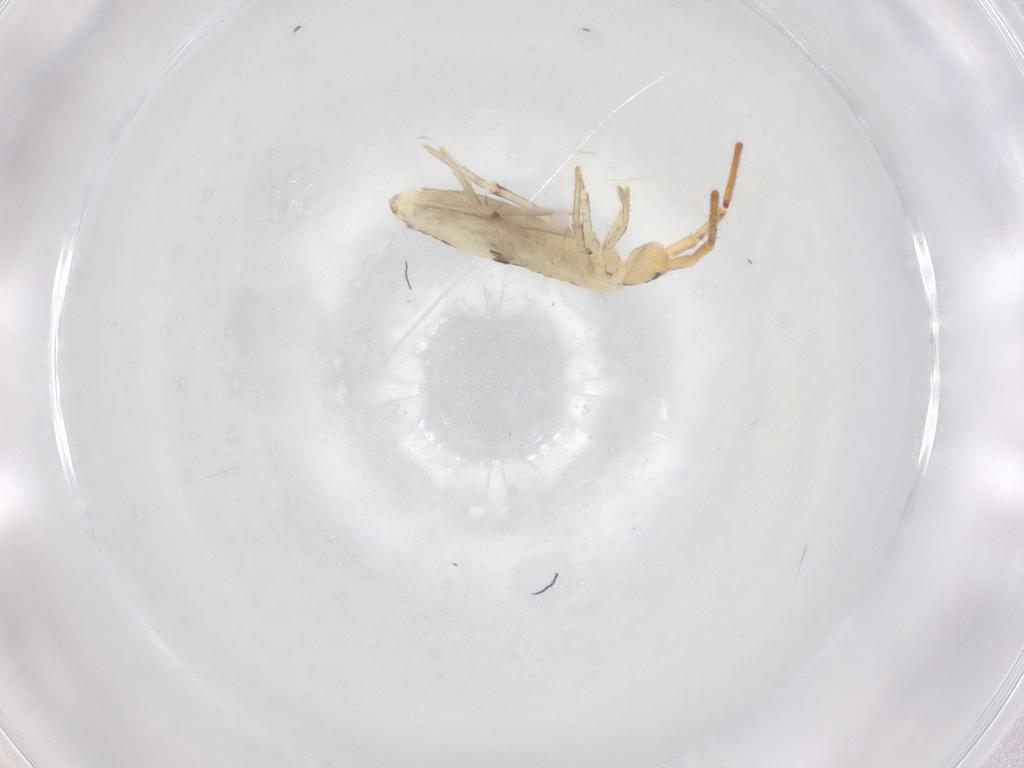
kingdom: Animalia
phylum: Arthropoda
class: Collembola
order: Poduromorpha
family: Hypogastruridae
